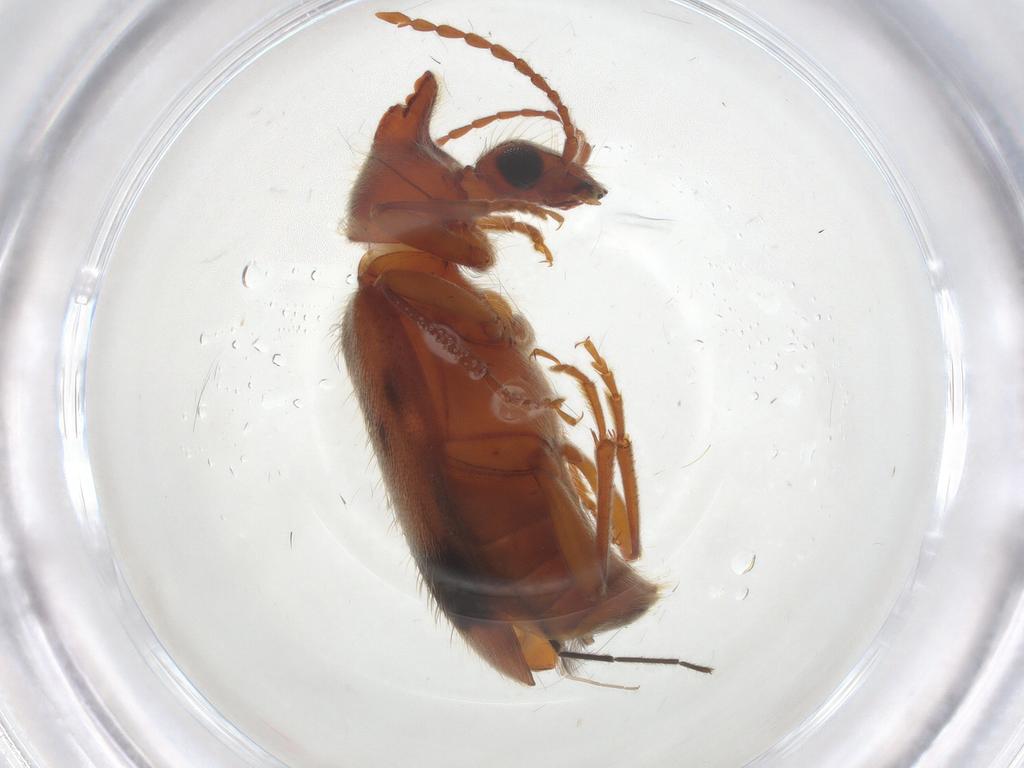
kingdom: Animalia
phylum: Arthropoda
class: Insecta
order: Coleoptera
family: Anthicidae
